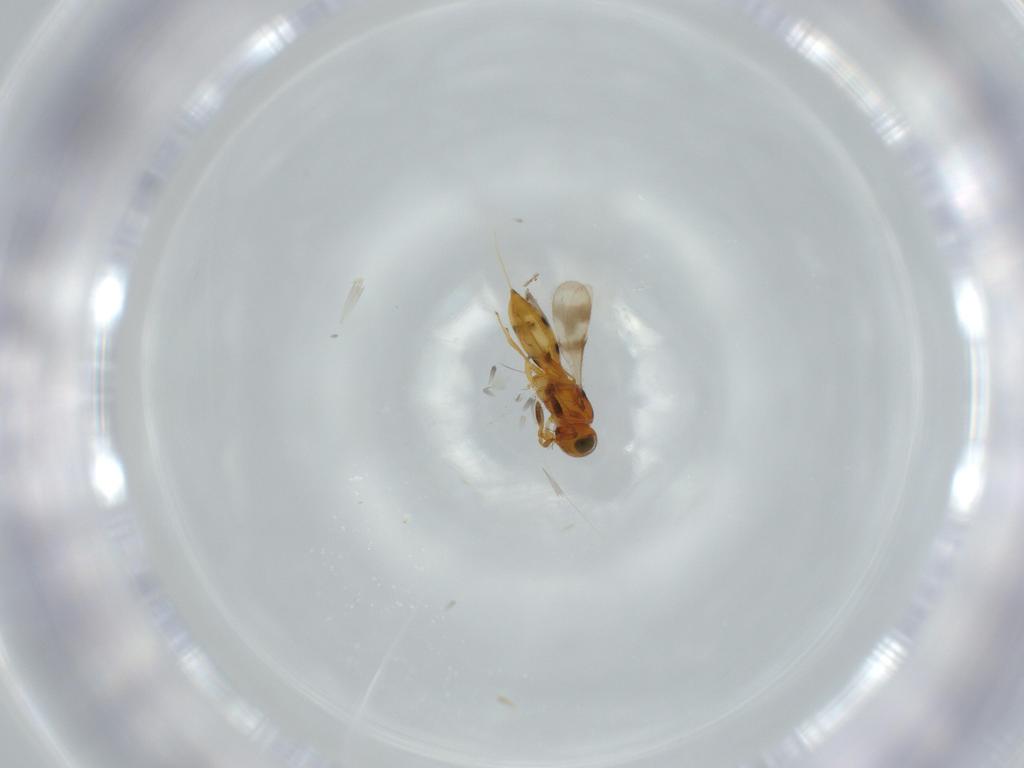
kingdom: Animalia
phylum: Arthropoda
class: Insecta
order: Hymenoptera
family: Scelionidae
